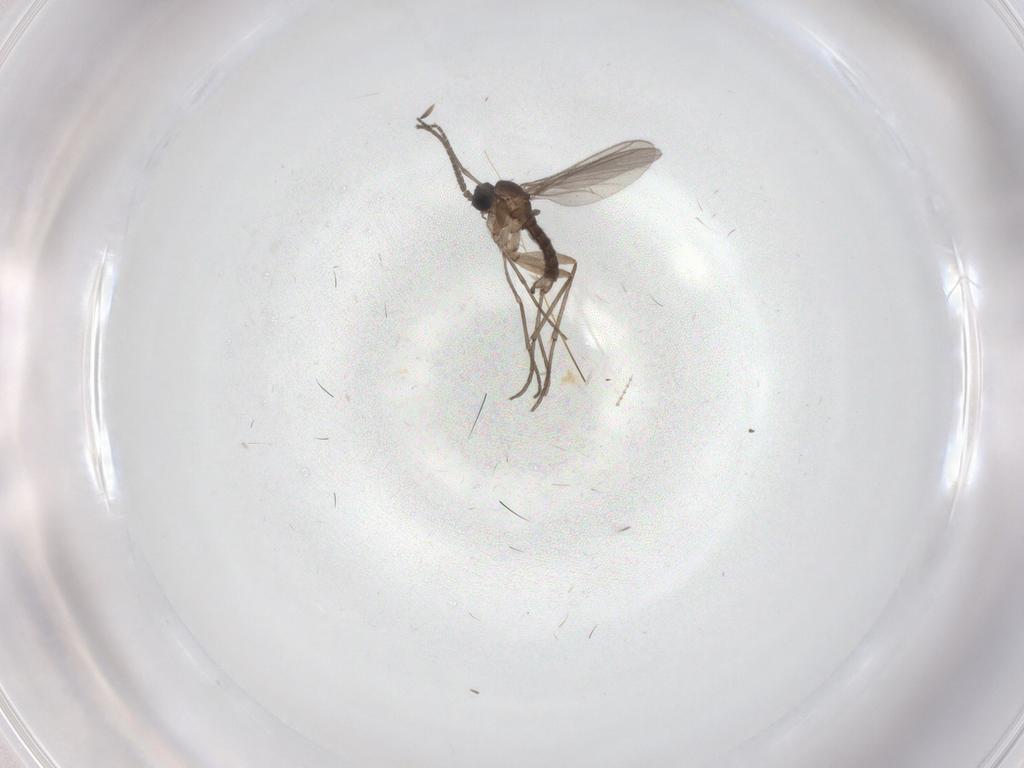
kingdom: Animalia
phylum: Arthropoda
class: Insecta
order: Diptera
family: Sciaridae
